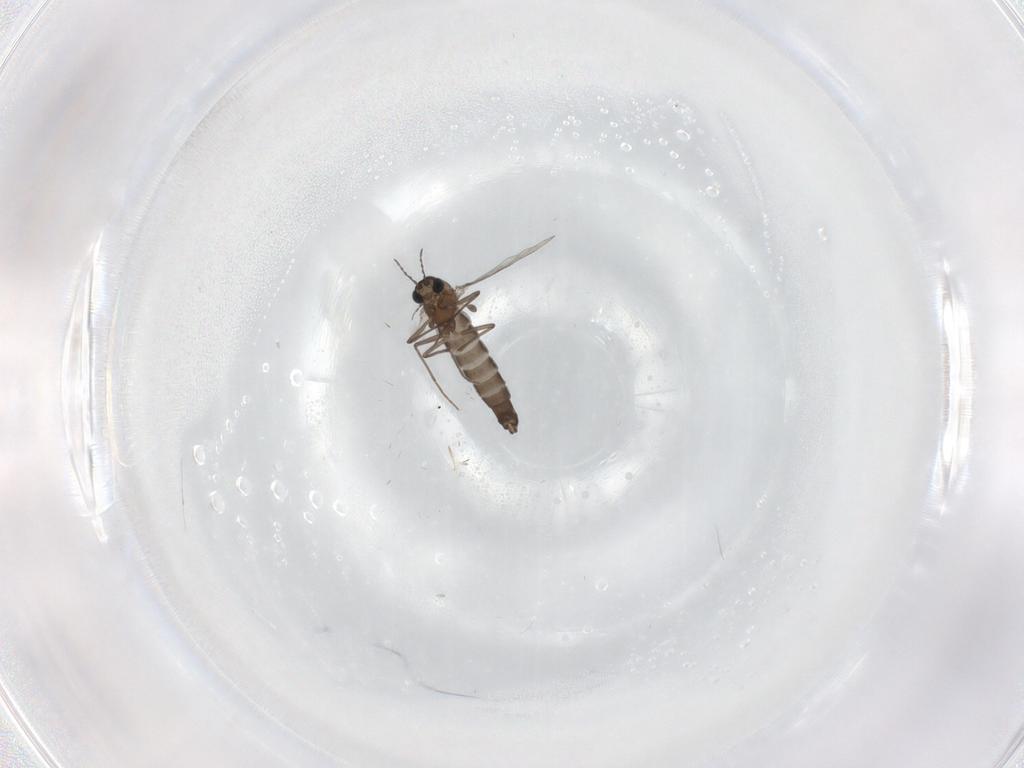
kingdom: Animalia
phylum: Arthropoda
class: Insecta
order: Diptera
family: Chironomidae
